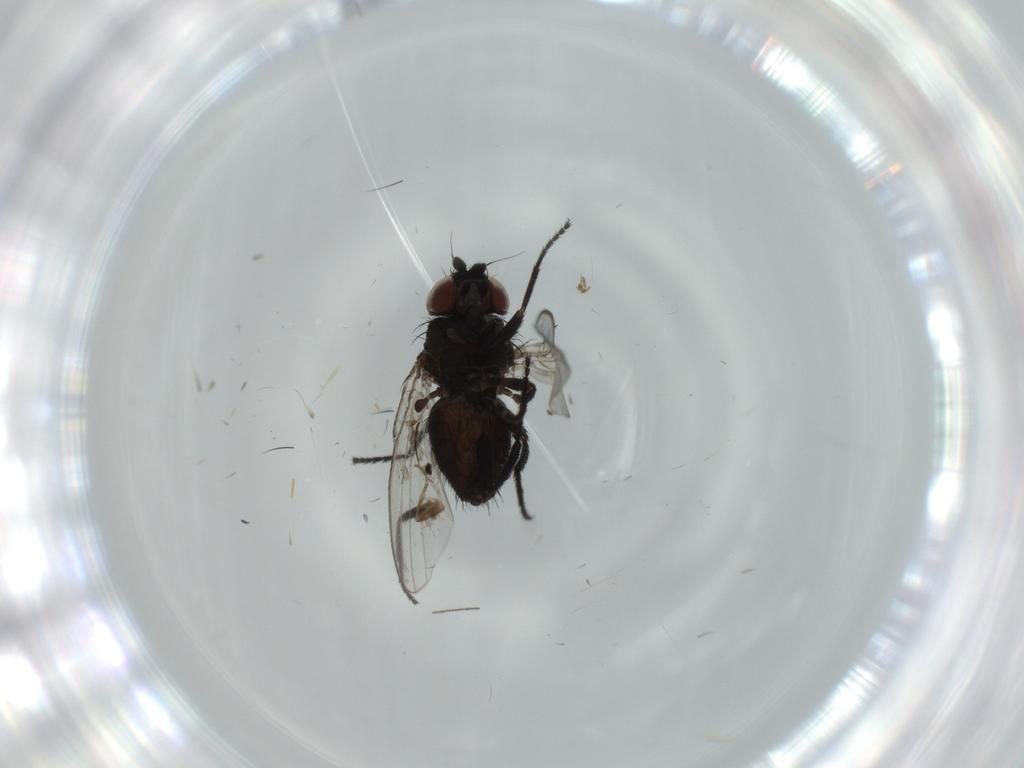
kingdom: Animalia
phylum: Arthropoda
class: Insecta
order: Diptera
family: Milichiidae
